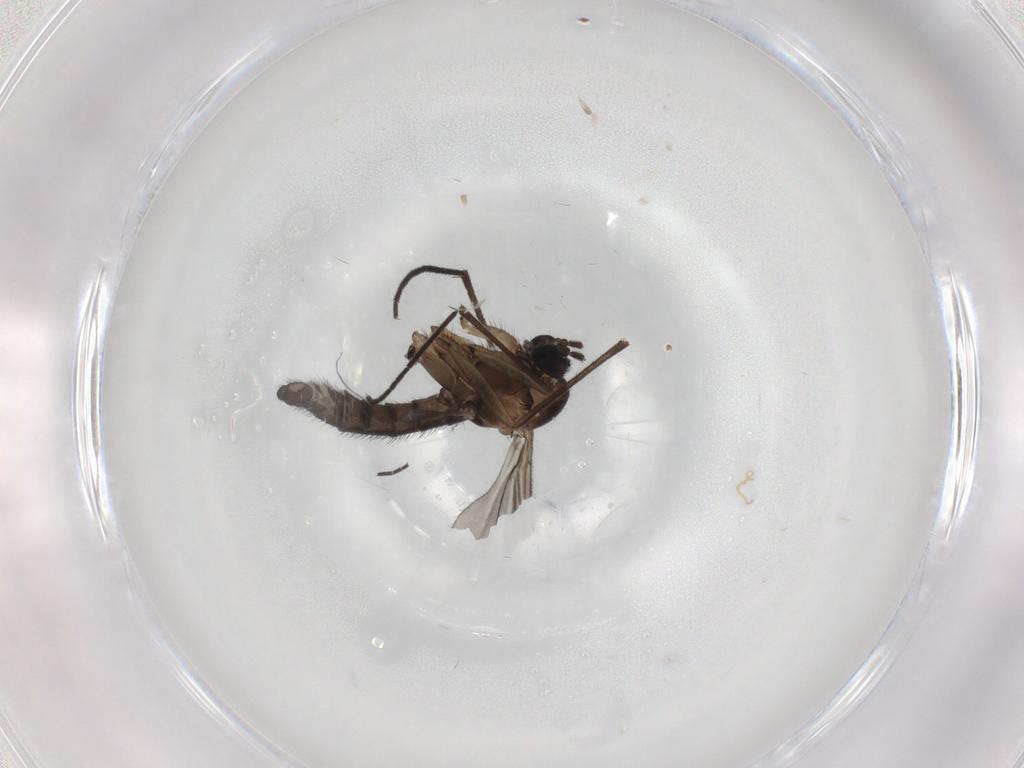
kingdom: Animalia
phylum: Arthropoda
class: Insecta
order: Diptera
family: Sciaridae
